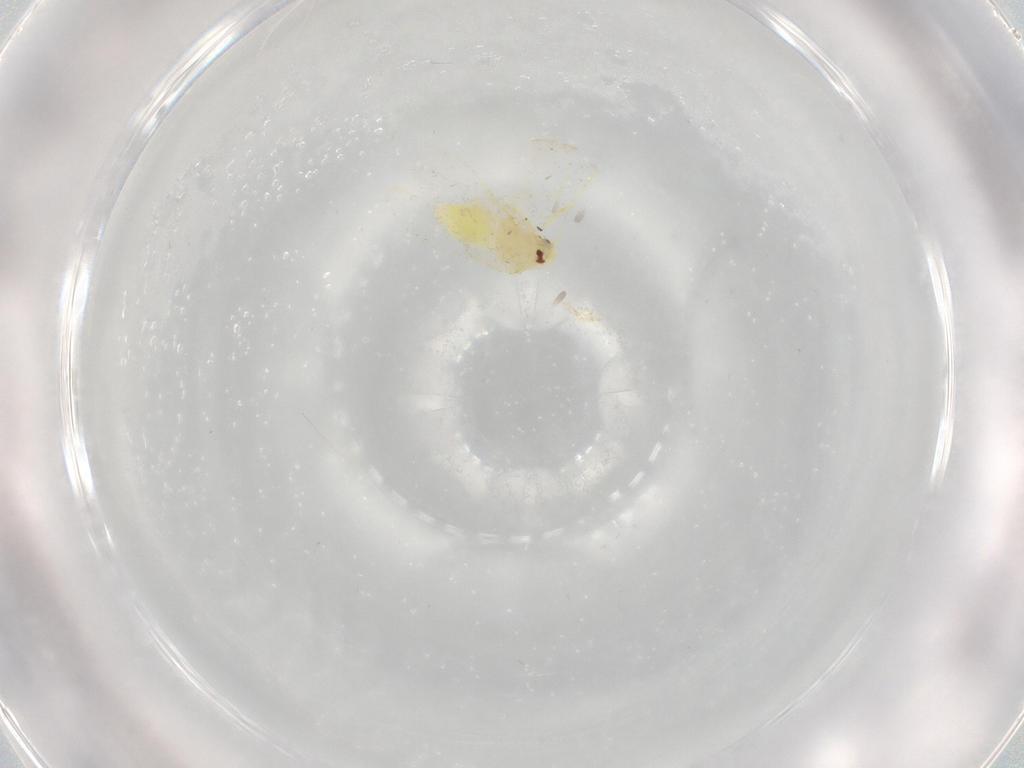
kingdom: Animalia
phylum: Arthropoda
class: Insecta
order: Hemiptera
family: Aleyrodidae
